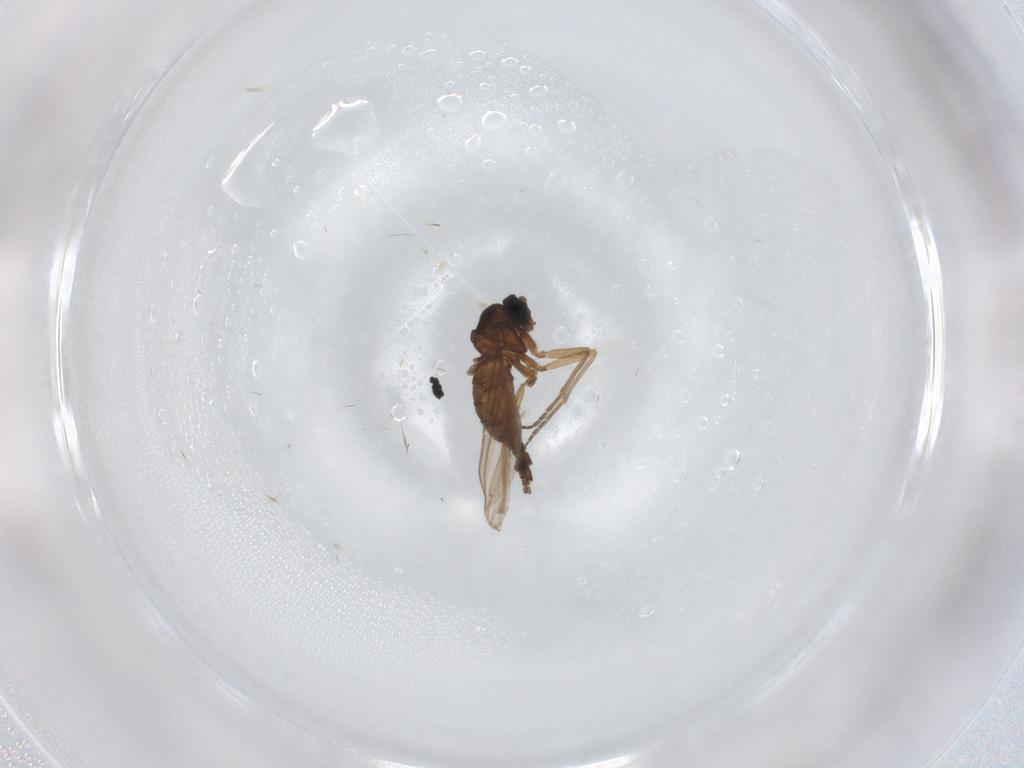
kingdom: Animalia
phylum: Arthropoda
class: Insecta
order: Diptera
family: Sciaridae
